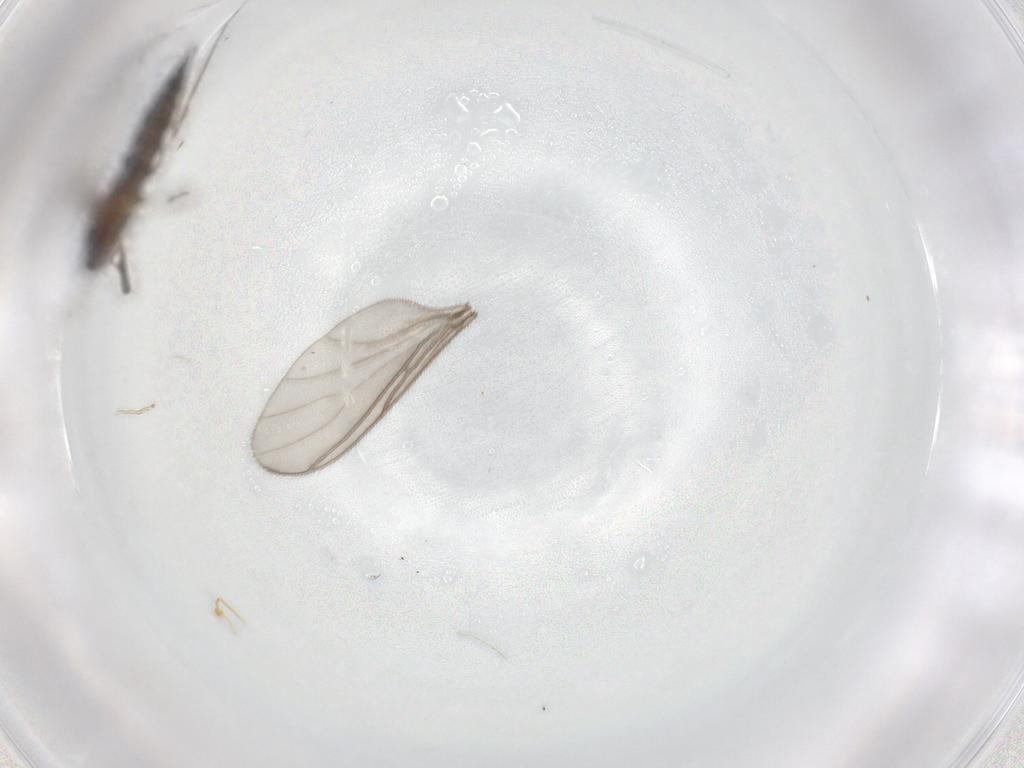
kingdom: Animalia
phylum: Arthropoda
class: Insecta
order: Diptera
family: Sciaridae
